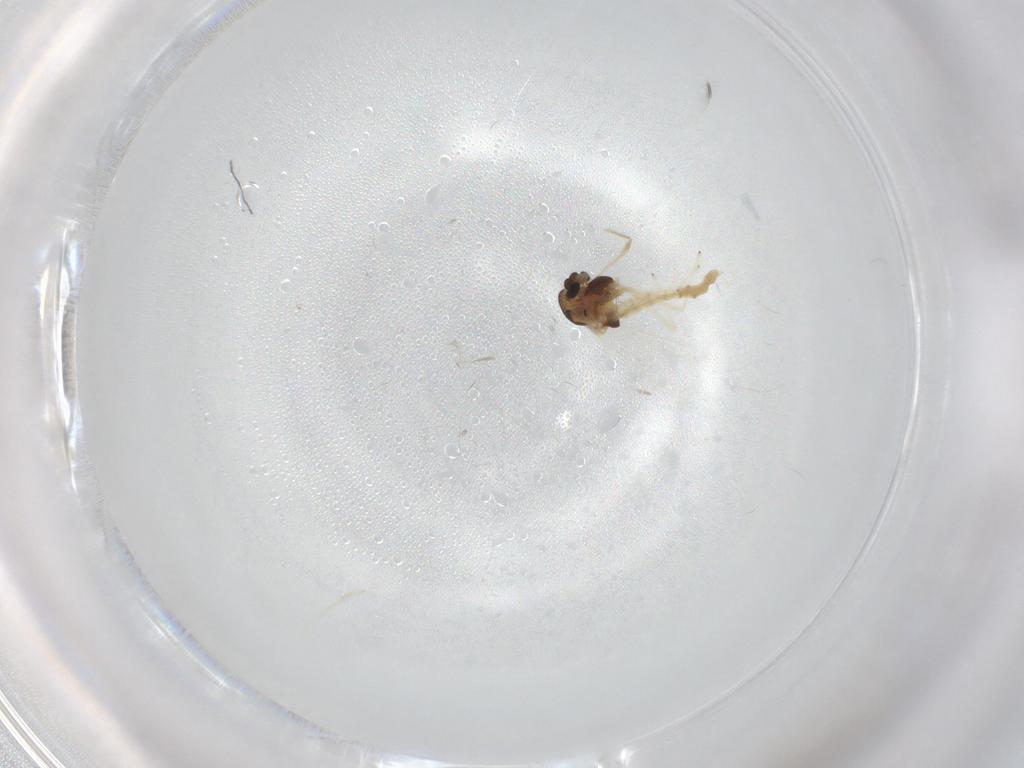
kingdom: Animalia
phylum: Arthropoda
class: Insecta
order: Diptera
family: Chironomidae
